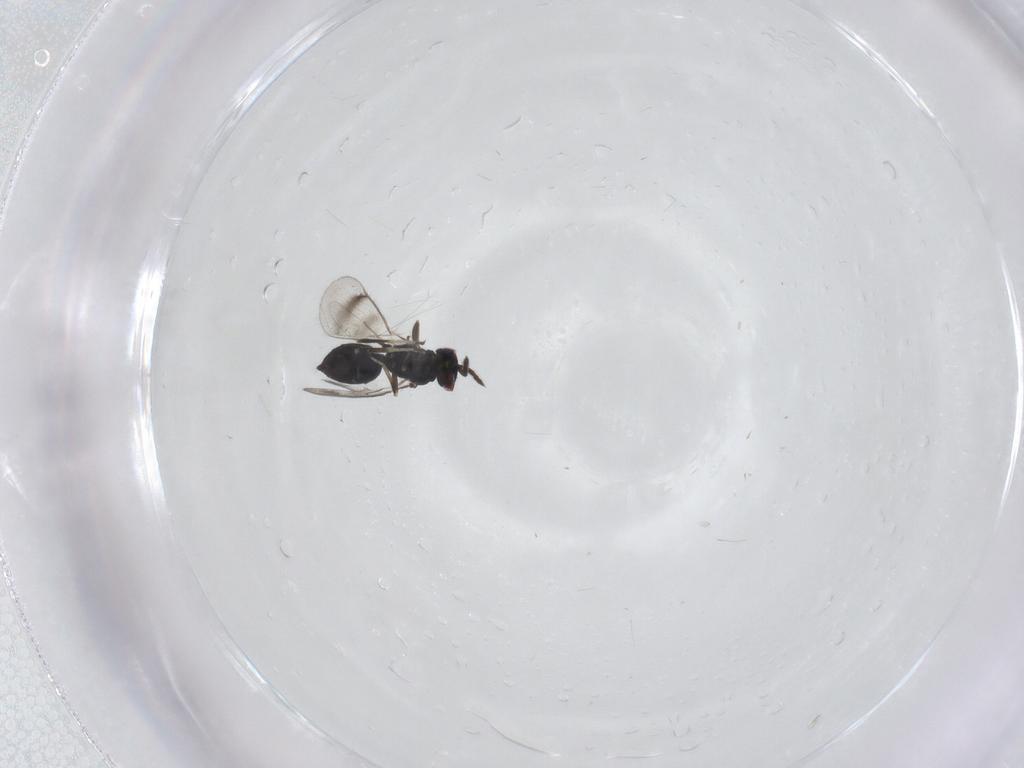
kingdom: Animalia
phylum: Arthropoda
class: Insecta
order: Hymenoptera
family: Eulophidae
